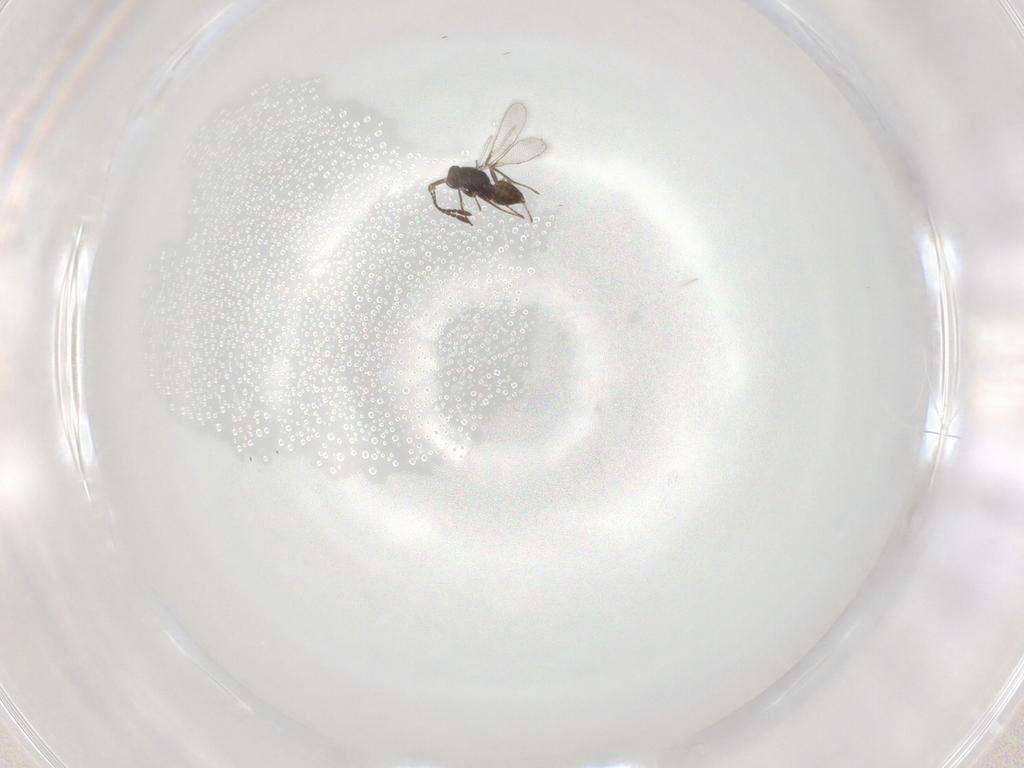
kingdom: Animalia
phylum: Arthropoda
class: Insecta
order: Hymenoptera
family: Mymaridae
